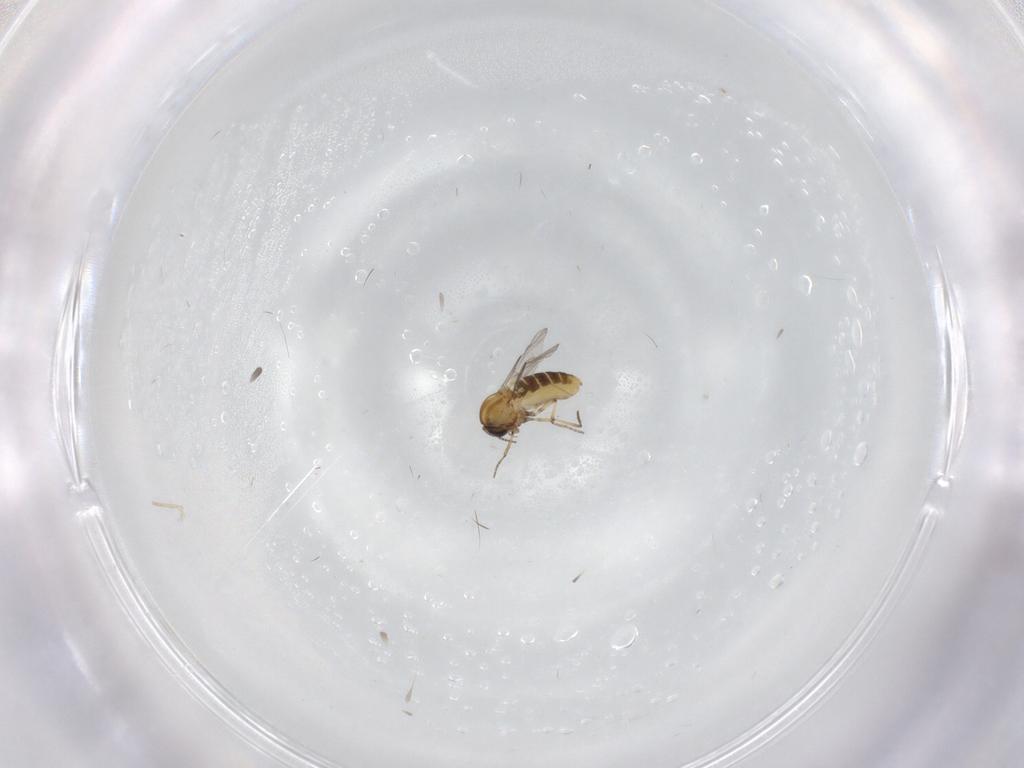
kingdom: Animalia
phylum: Arthropoda
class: Insecta
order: Diptera
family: Ceratopogonidae
